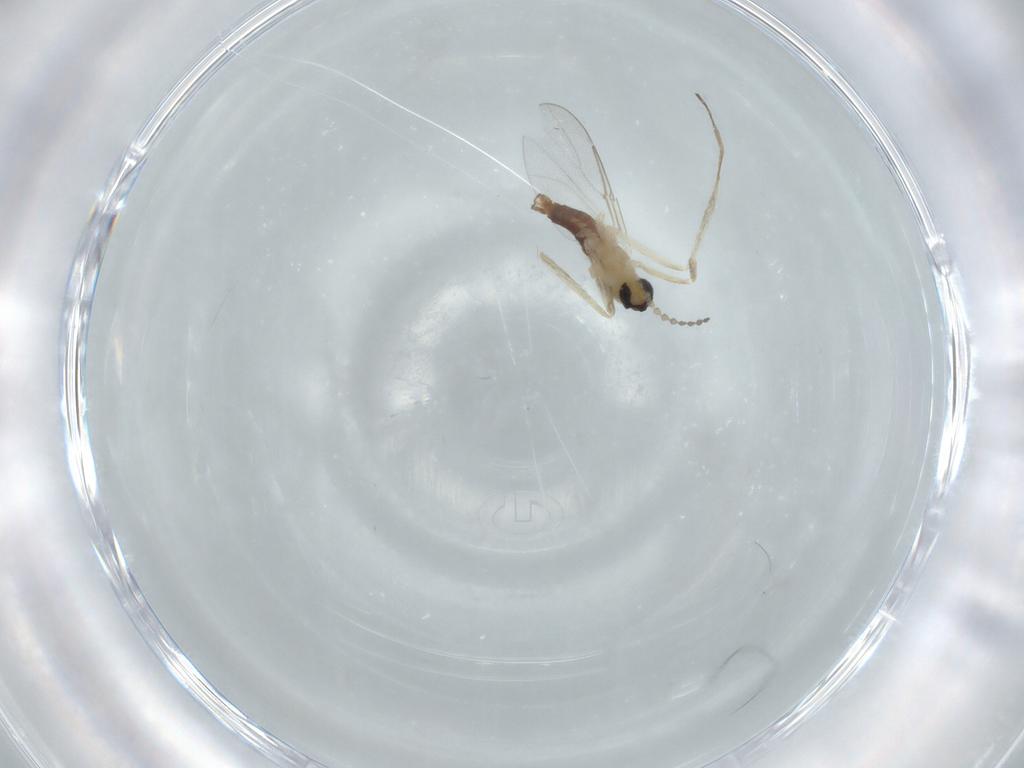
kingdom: Animalia
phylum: Arthropoda
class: Insecta
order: Diptera
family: Cecidomyiidae
